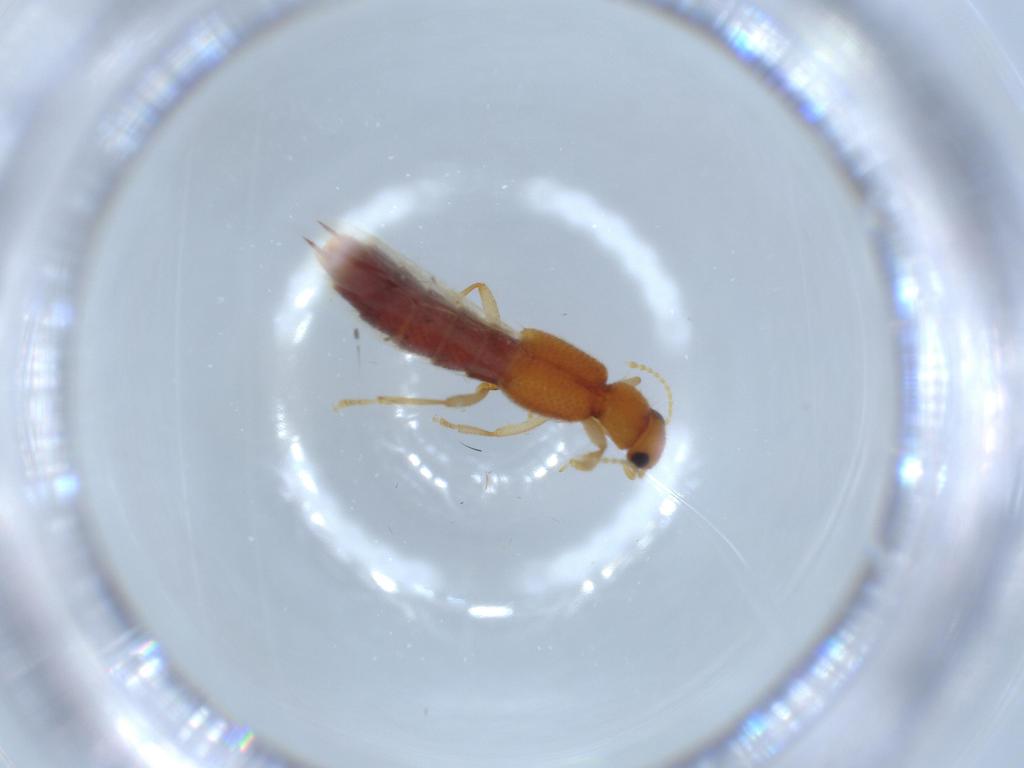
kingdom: Animalia
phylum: Arthropoda
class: Insecta
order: Coleoptera
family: Staphylinidae
